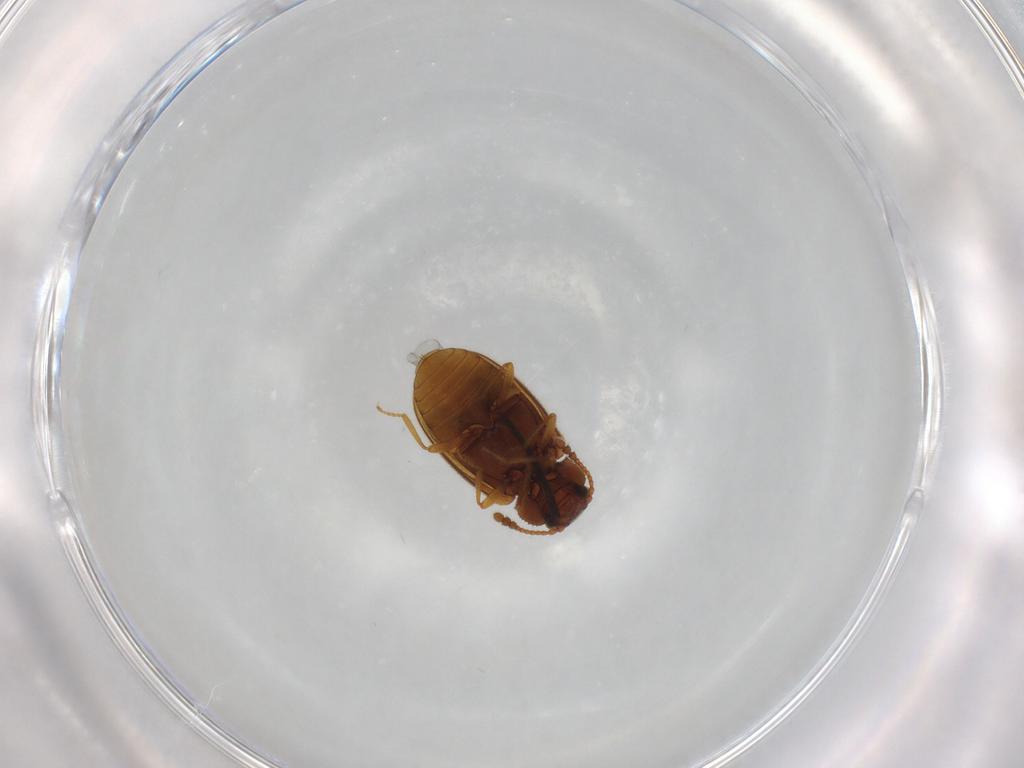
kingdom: Animalia
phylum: Arthropoda
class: Insecta
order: Coleoptera
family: Cryptophagidae
